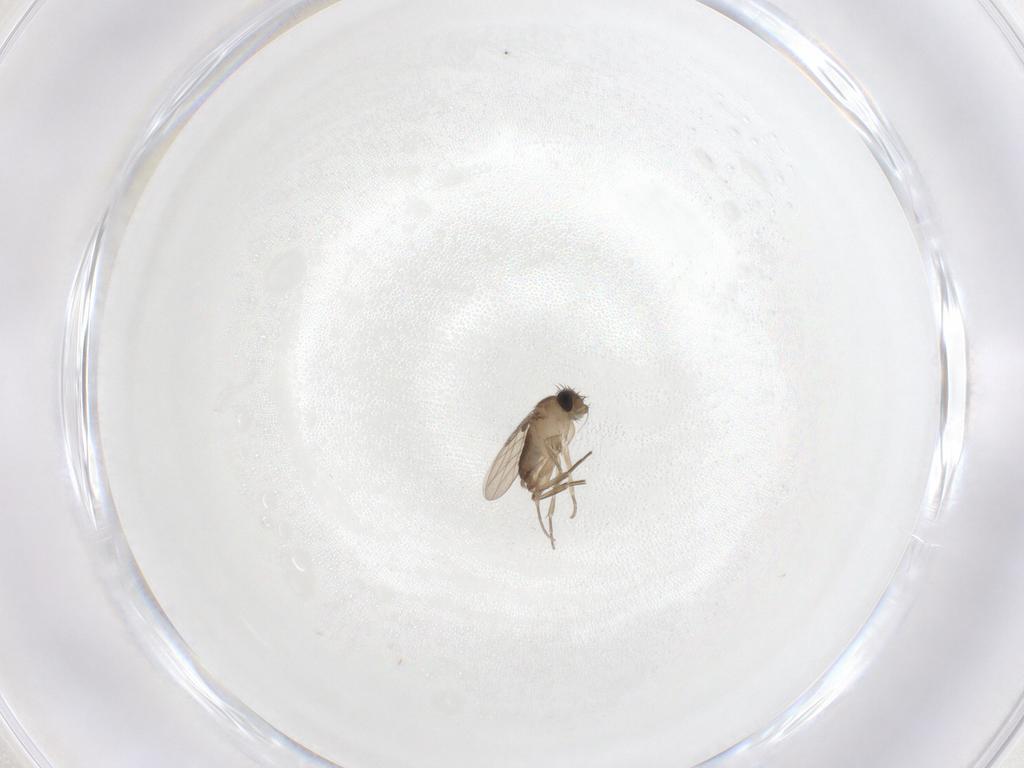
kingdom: Animalia
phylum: Arthropoda
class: Insecta
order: Diptera
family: Phoridae
